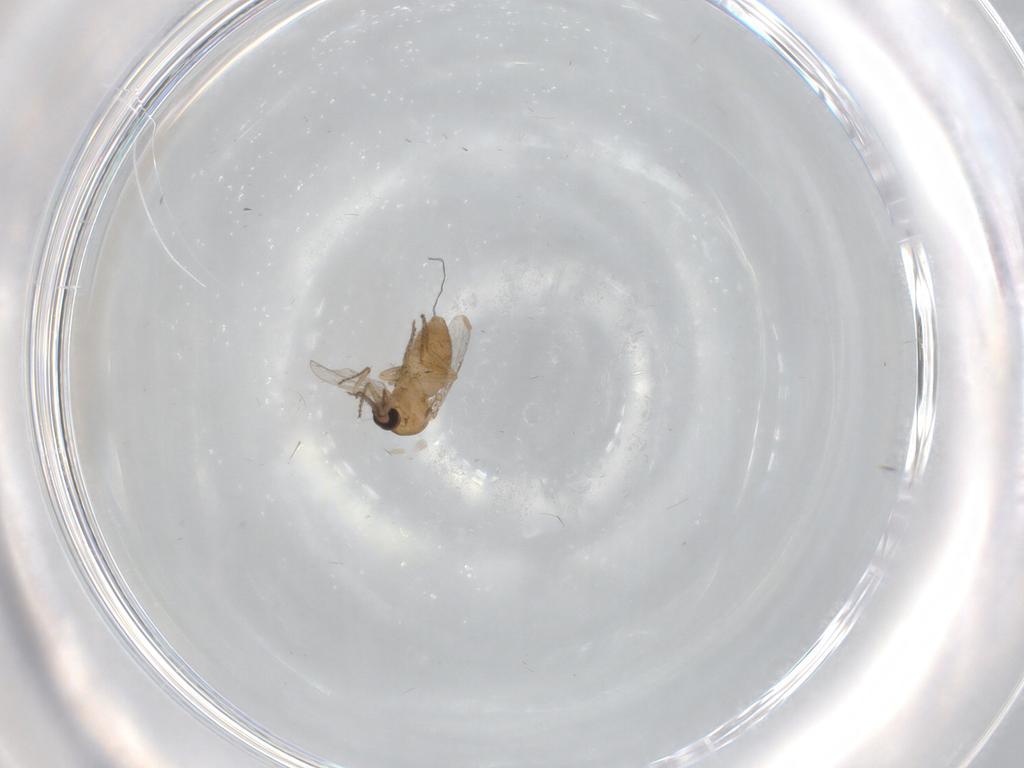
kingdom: Animalia
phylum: Arthropoda
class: Insecta
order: Diptera
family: Sciaridae
